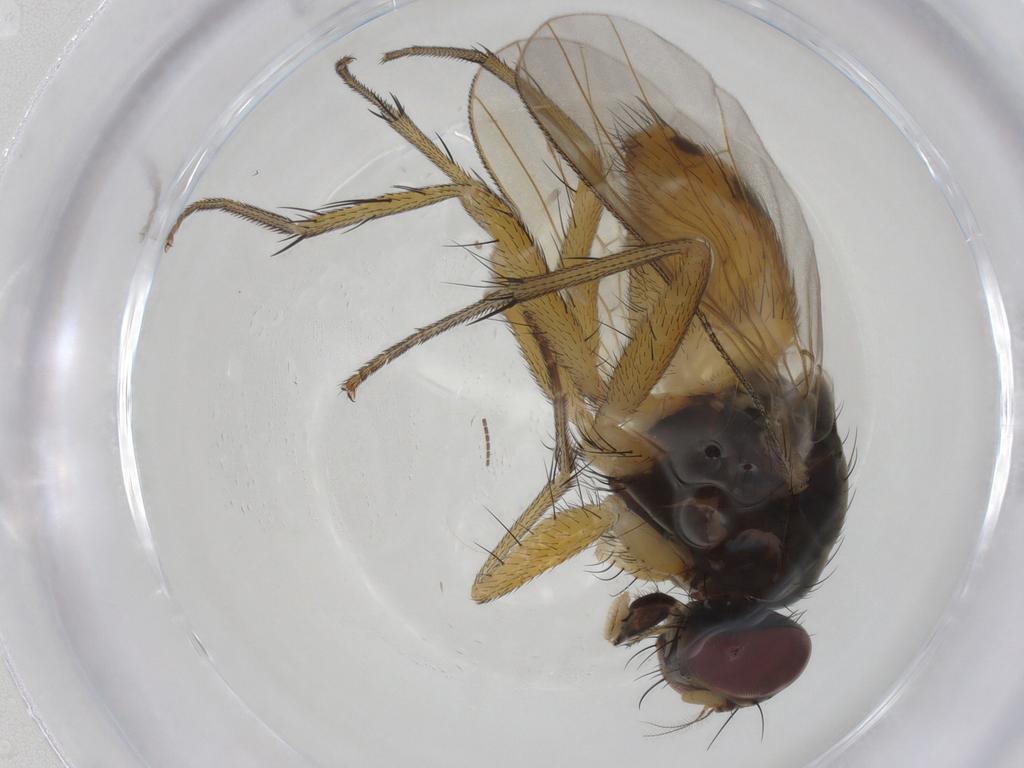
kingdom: Animalia
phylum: Arthropoda
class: Insecta
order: Diptera
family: Muscidae
